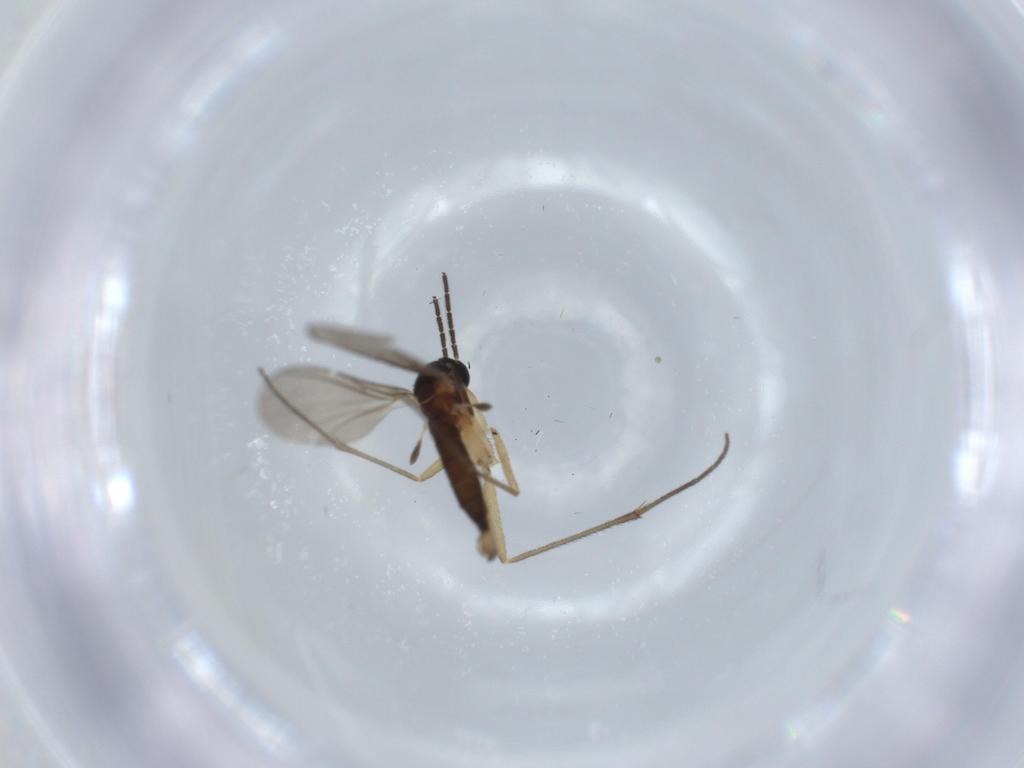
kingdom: Animalia
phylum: Arthropoda
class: Insecta
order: Diptera
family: Sciaridae
